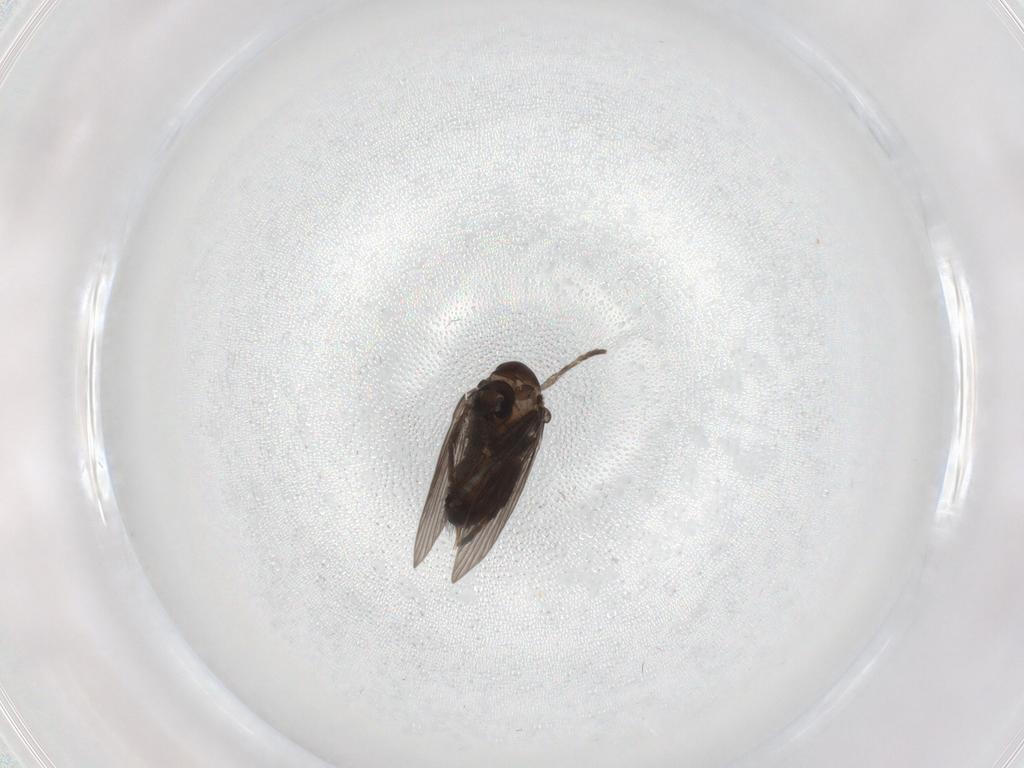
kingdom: Animalia
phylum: Arthropoda
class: Insecta
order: Diptera
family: Psychodidae
